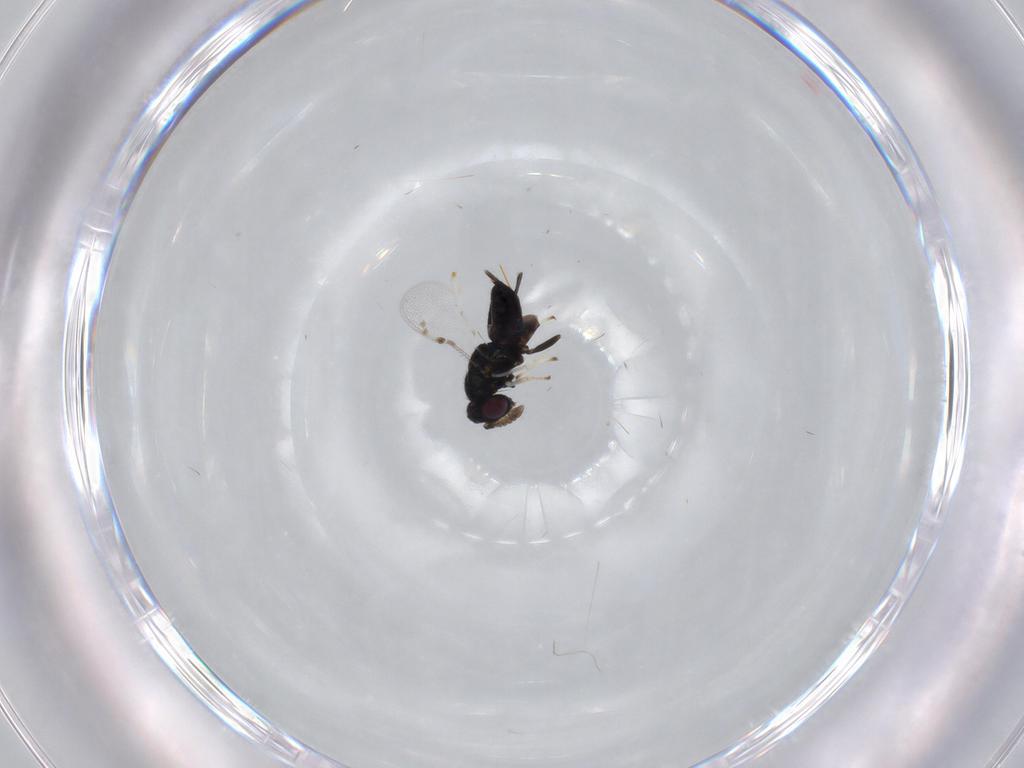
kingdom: Animalia
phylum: Arthropoda
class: Insecta
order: Hymenoptera
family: Pirenidae
